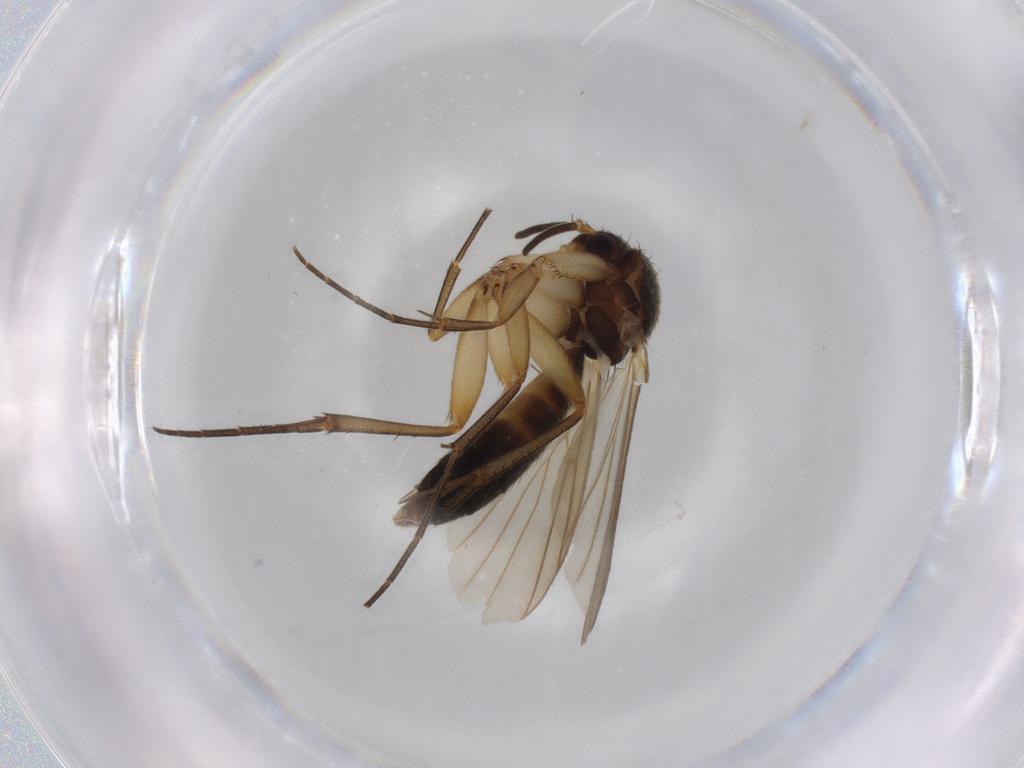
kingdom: Animalia
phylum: Arthropoda
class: Insecta
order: Diptera
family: Mycetophilidae
